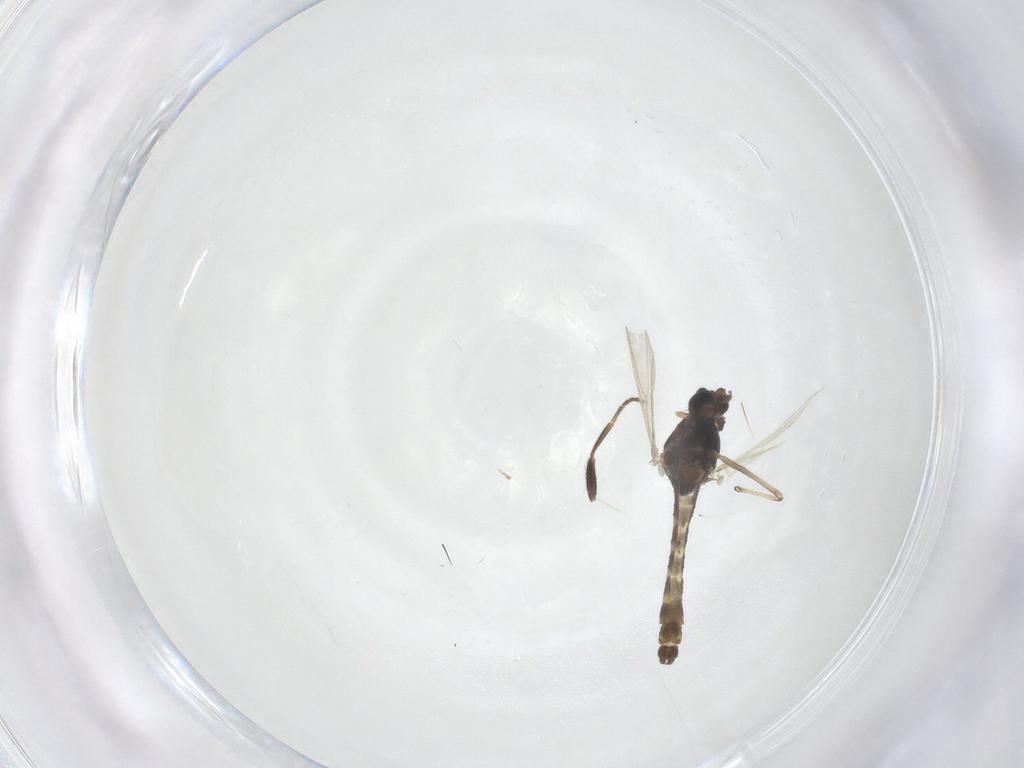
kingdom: Animalia
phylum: Arthropoda
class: Insecta
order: Diptera
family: Chironomidae
